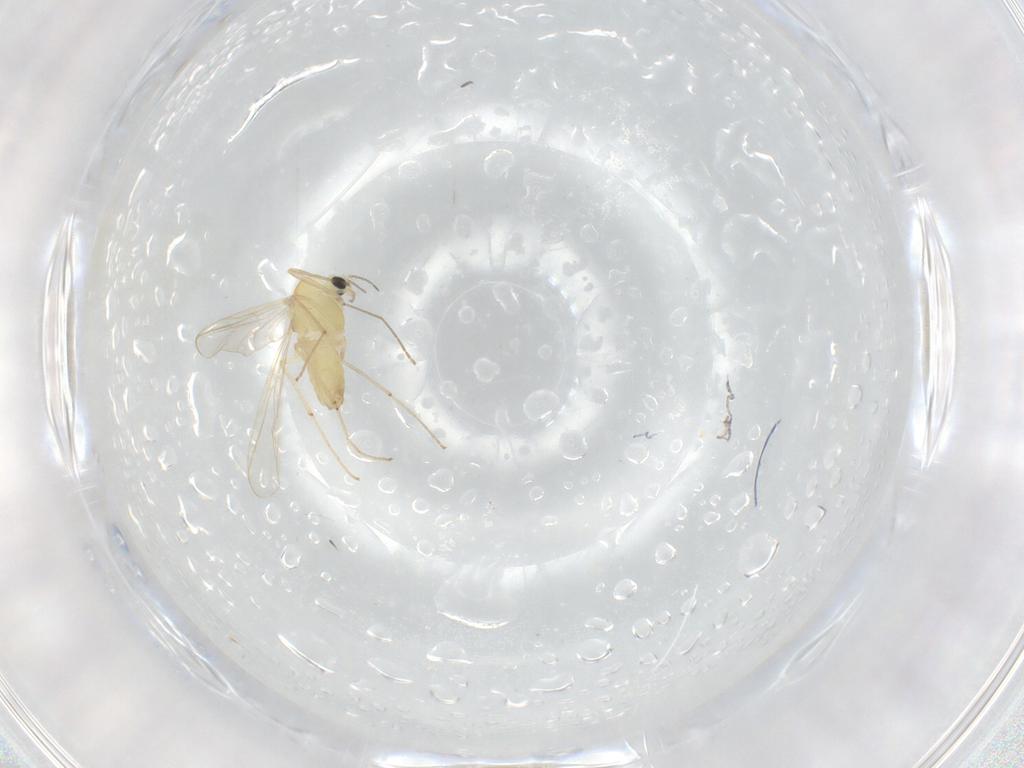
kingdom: Animalia
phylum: Arthropoda
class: Insecta
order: Diptera
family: Chironomidae
